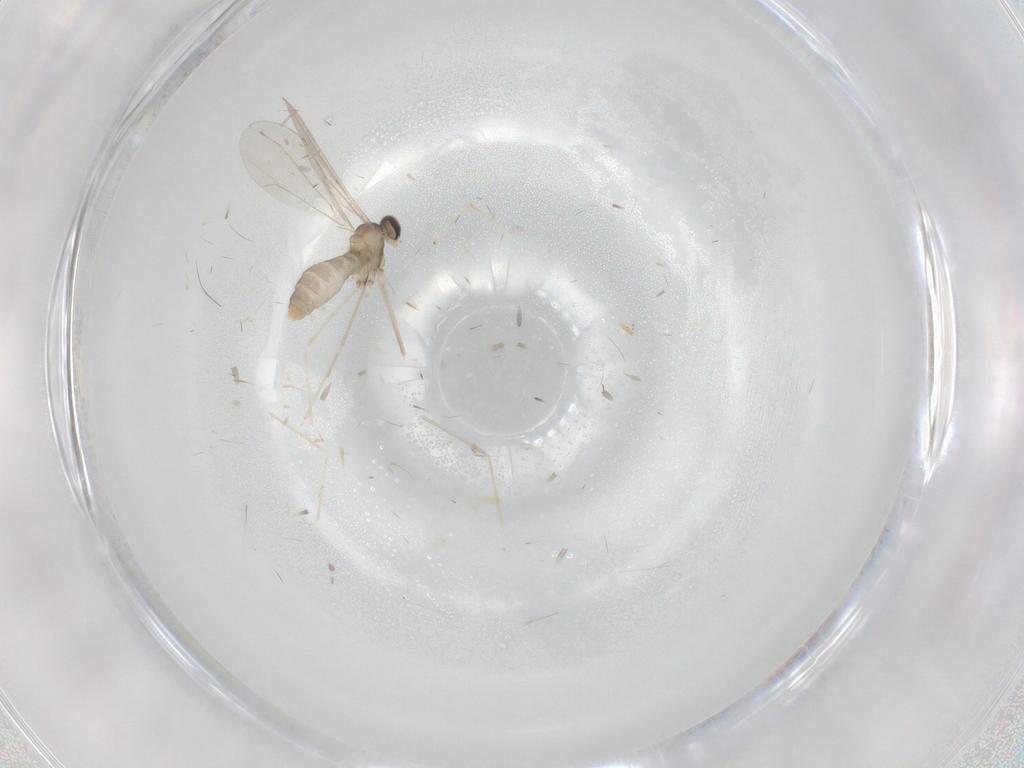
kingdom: Animalia
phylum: Arthropoda
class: Insecta
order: Diptera
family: Cecidomyiidae
